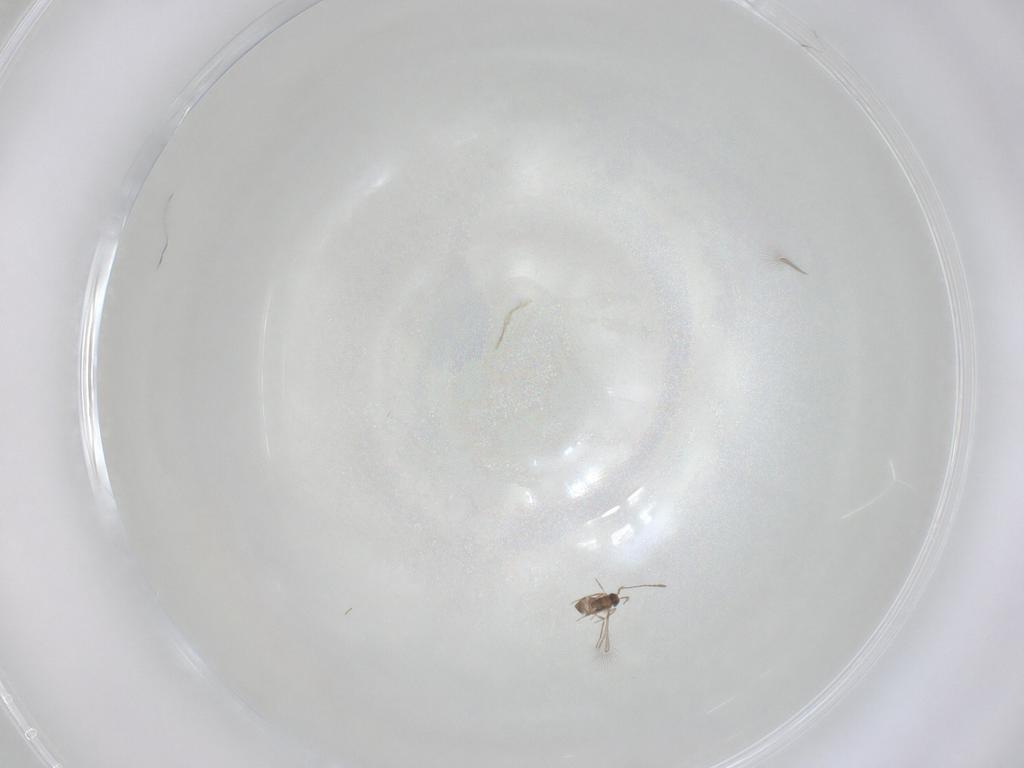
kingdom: Animalia
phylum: Arthropoda
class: Insecta
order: Hymenoptera
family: Mymaridae
